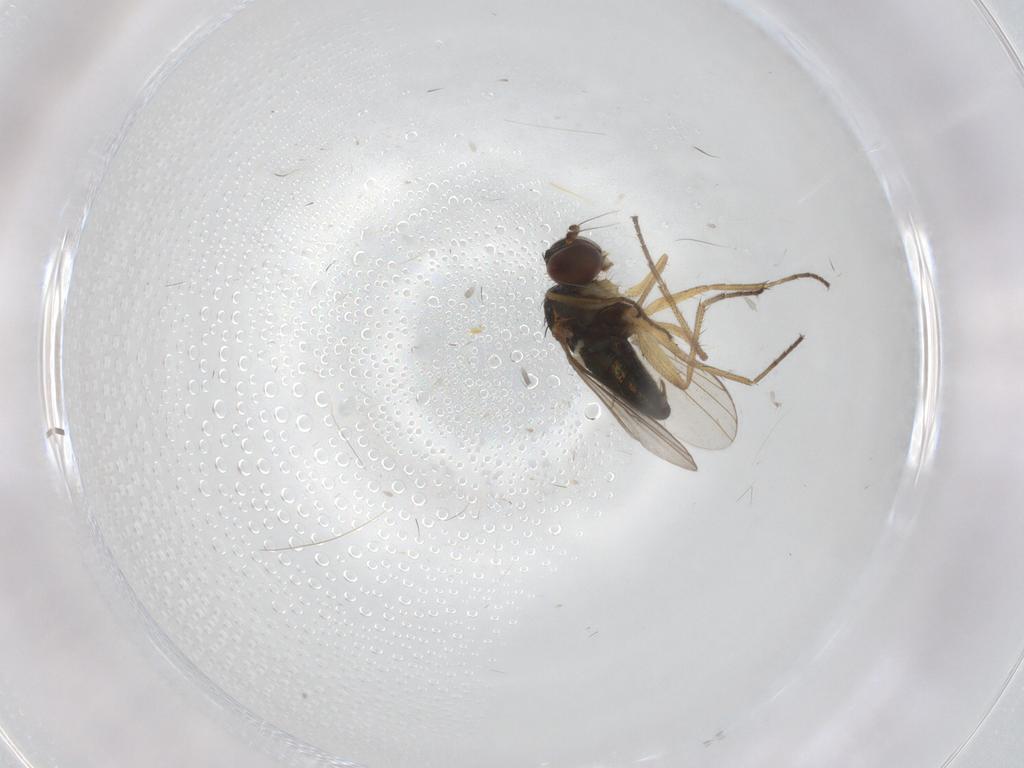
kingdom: Animalia
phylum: Arthropoda
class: Insecta
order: Diptera
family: Dolichopodidae
